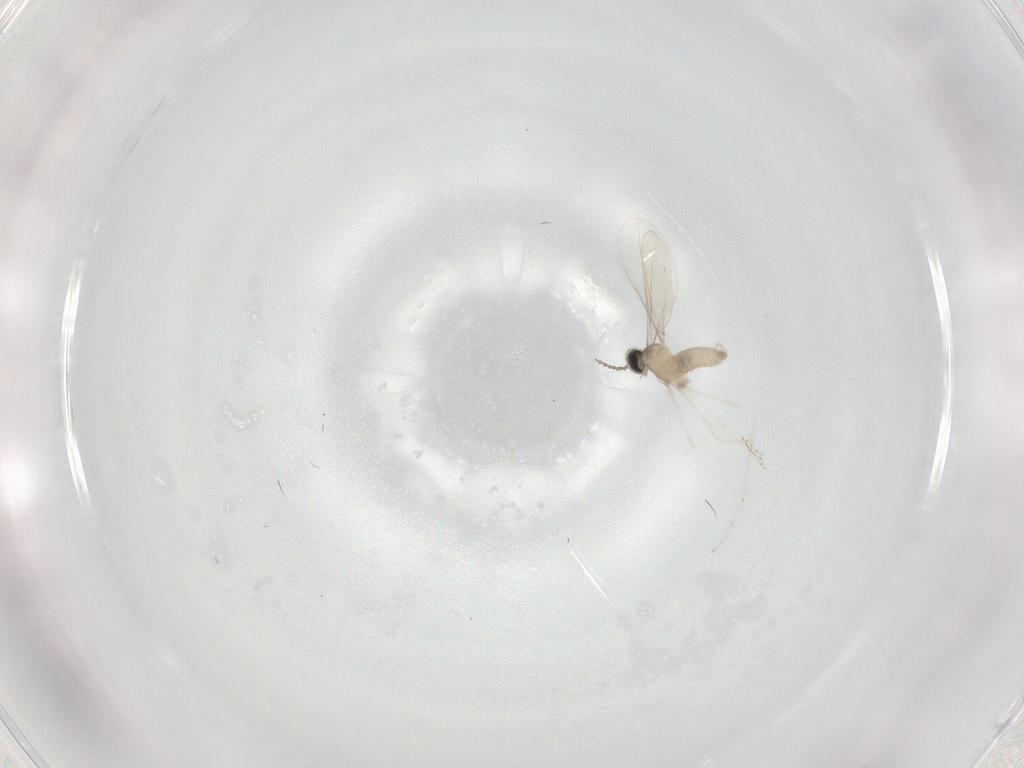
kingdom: Animalia
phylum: Arthropoda
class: Insecta
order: Diptera
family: Cecidomyiidae
